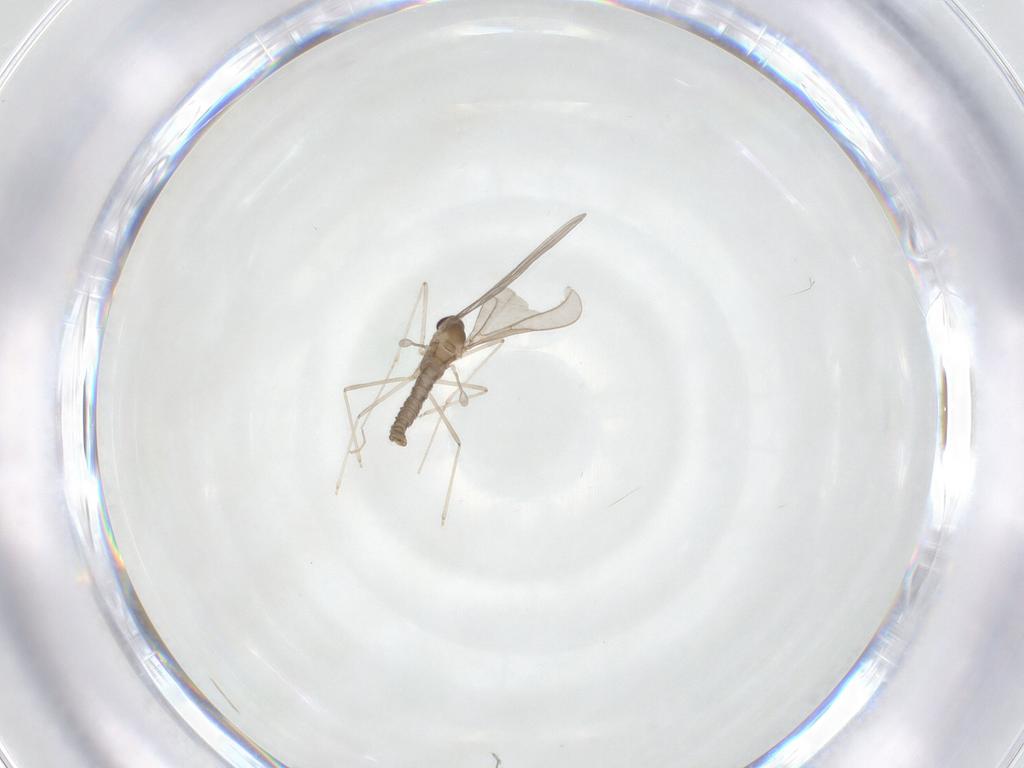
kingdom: Animalia
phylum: Arthropoda
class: Insecta
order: Diptera
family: Cecidomyiidae
